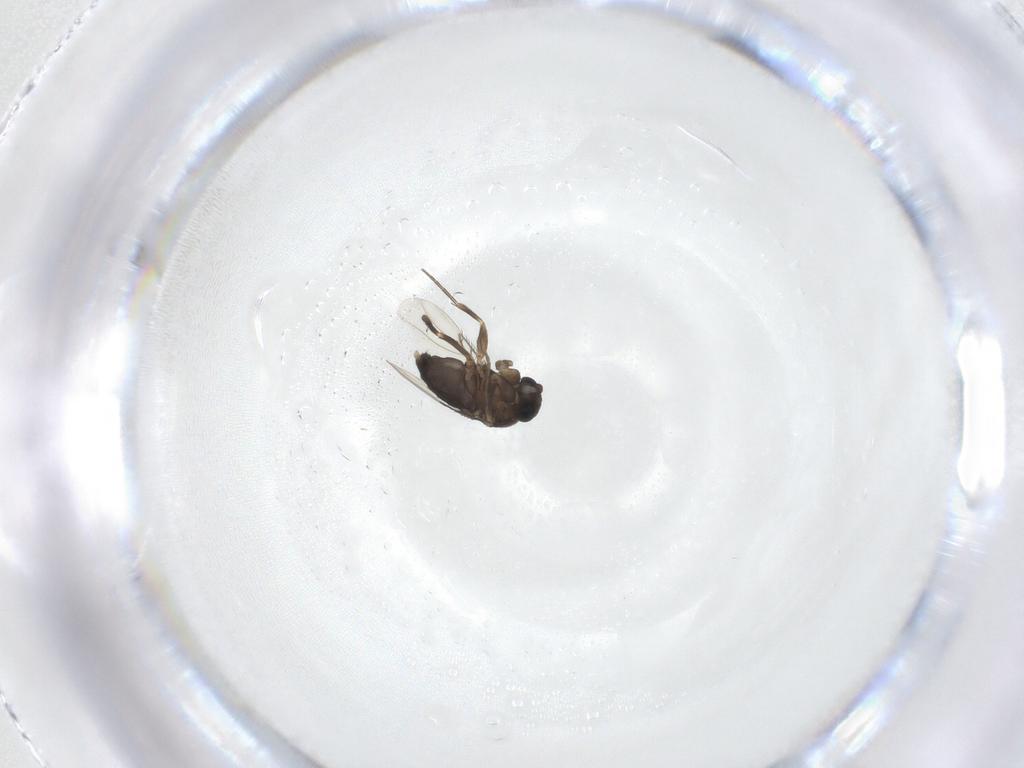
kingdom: Animalia
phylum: Arthropoda
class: Insecta
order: Diptera
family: Phoridae
